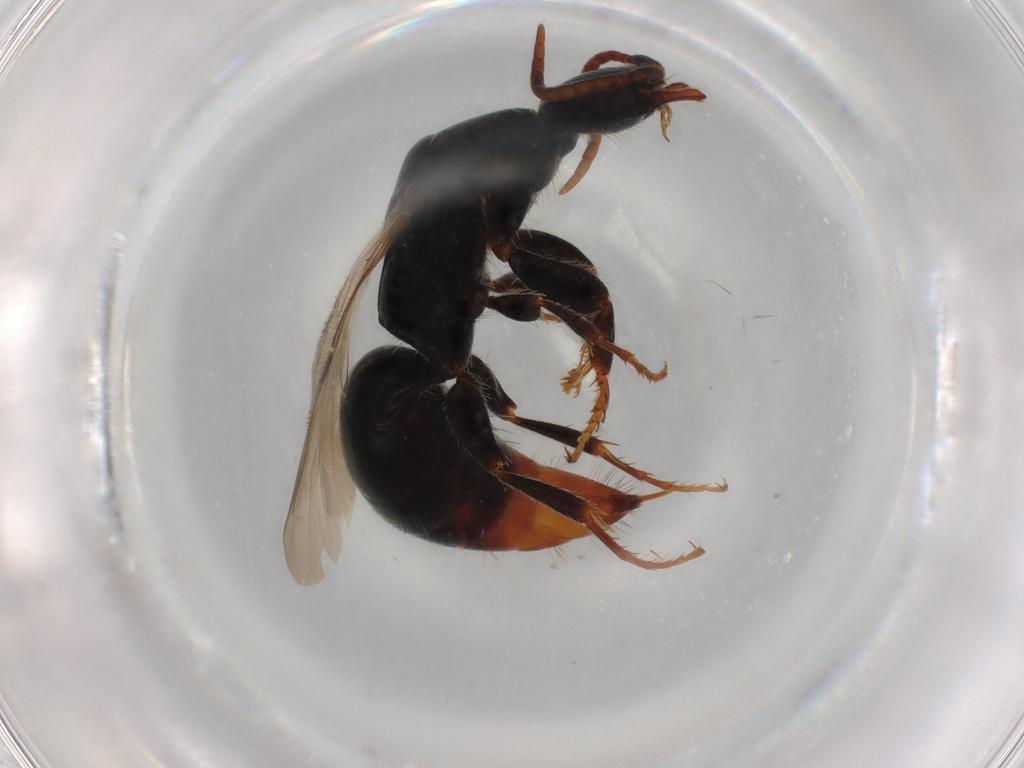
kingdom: Animalia
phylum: Arthropoda
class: Insecta
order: Hymenoptera
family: Bethylidae
